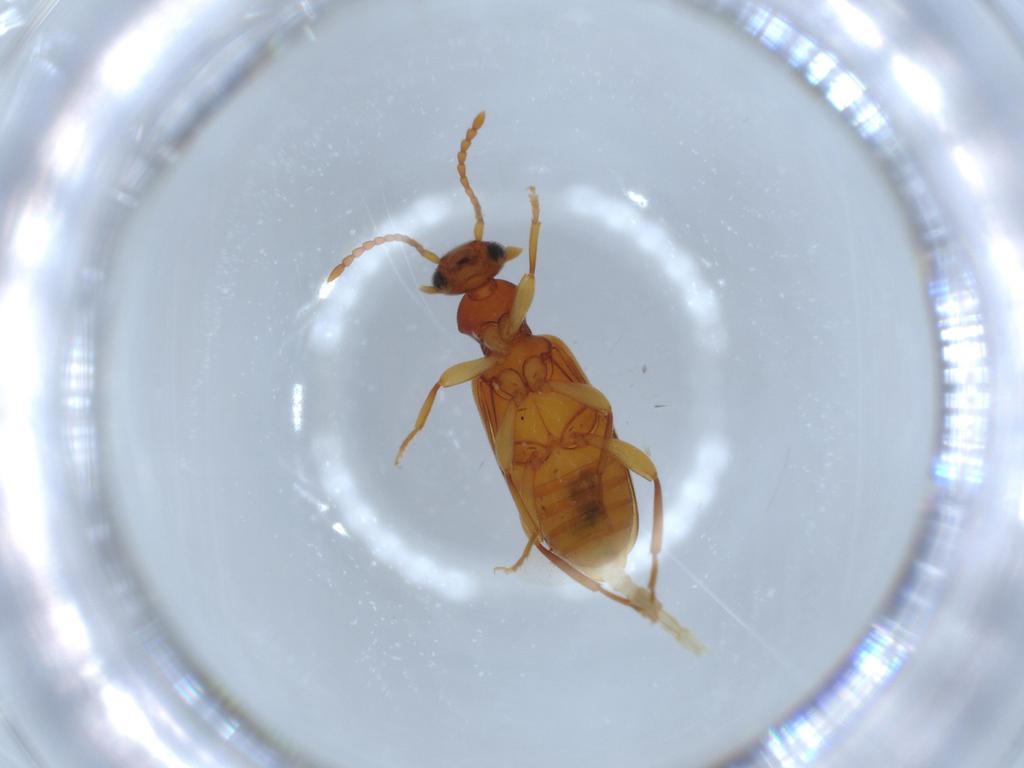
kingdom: Animalia
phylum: Arthropoda
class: Insecta
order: Coleoptera
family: Anthicidae
